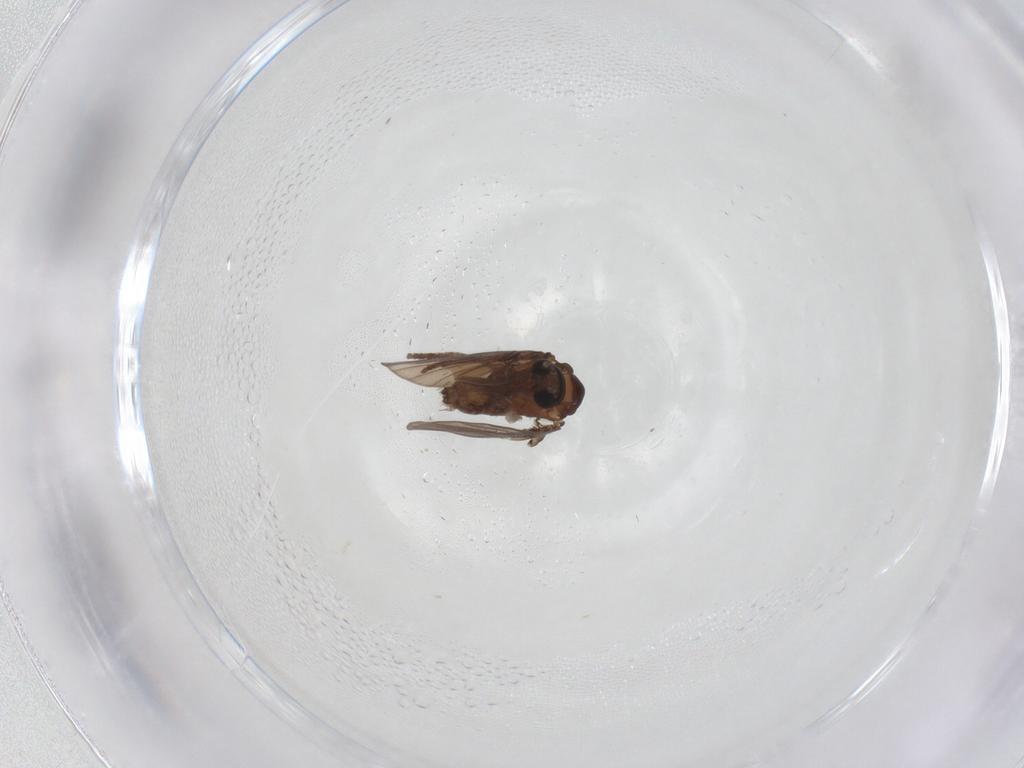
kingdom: Animalia
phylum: Arthropoda
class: Insecta
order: Diptera
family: Psychodidae
